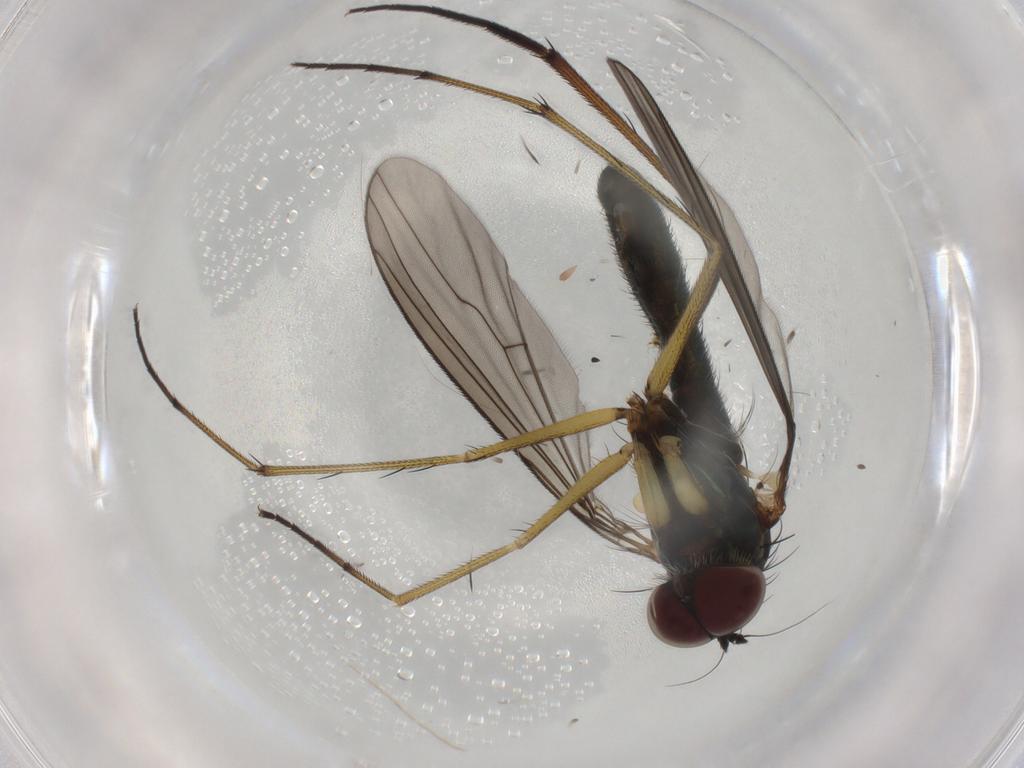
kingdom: Animalia
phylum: Arthropoda
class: Insecta
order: Diptera
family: Dolichopodidae
